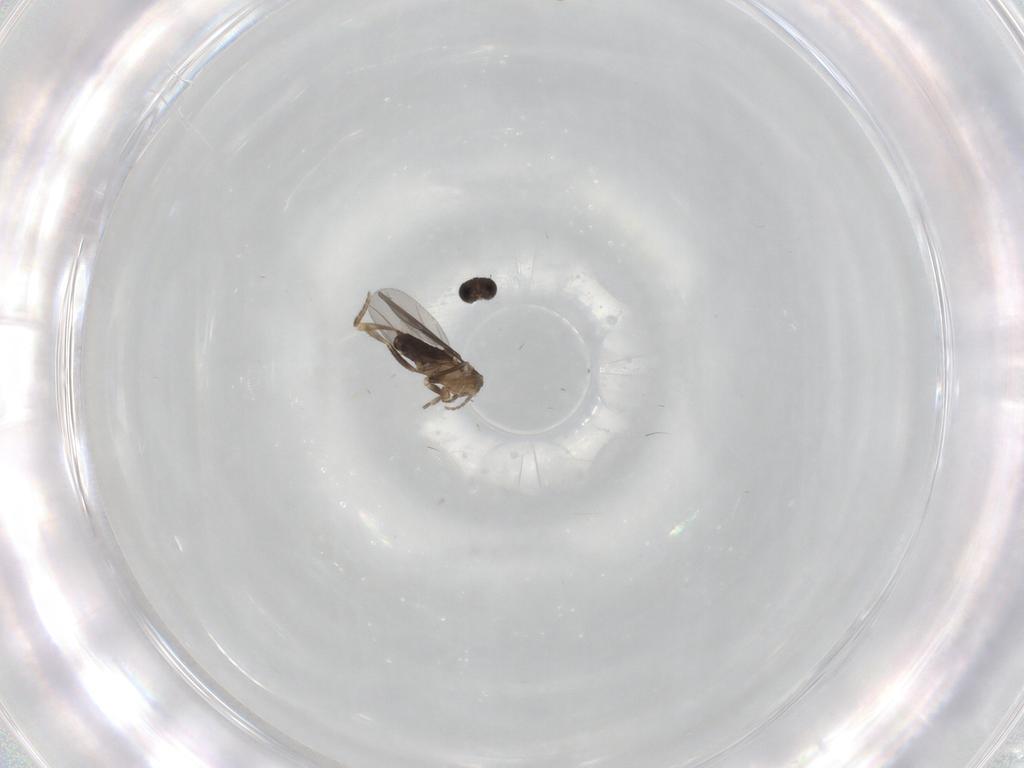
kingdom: Animalia
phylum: Arthropoda
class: Insecta
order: Diptera
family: Phoridae
